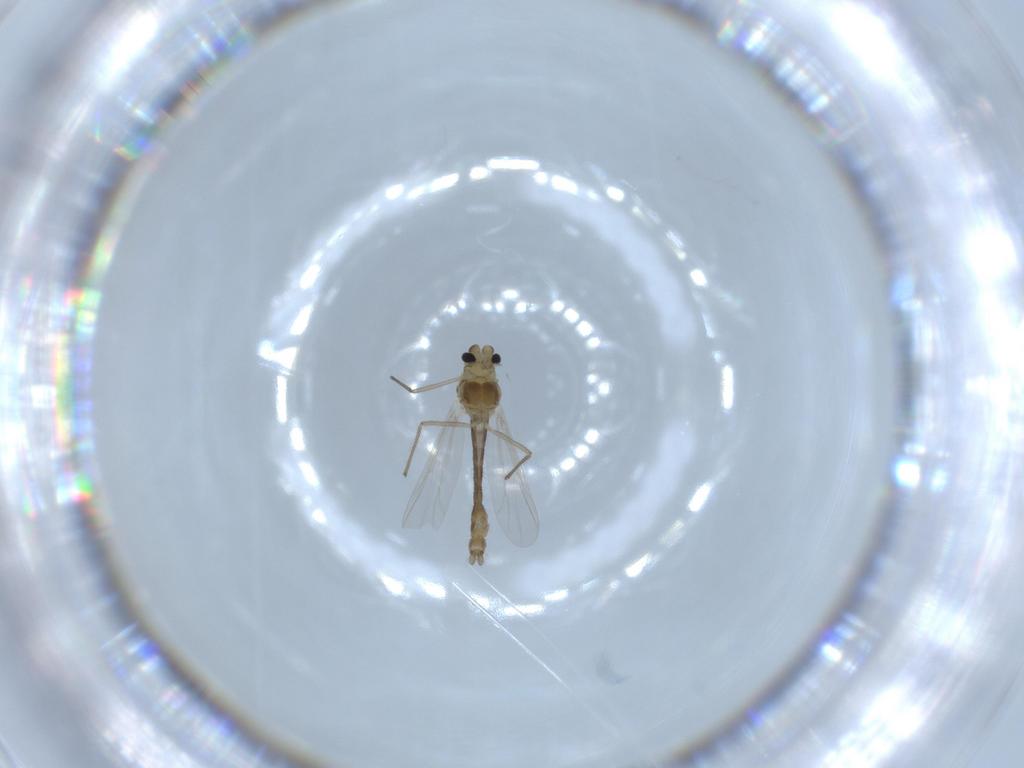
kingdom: Animalia
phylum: Arthropoda
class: Insecta
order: Diptera
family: Chironomidae
